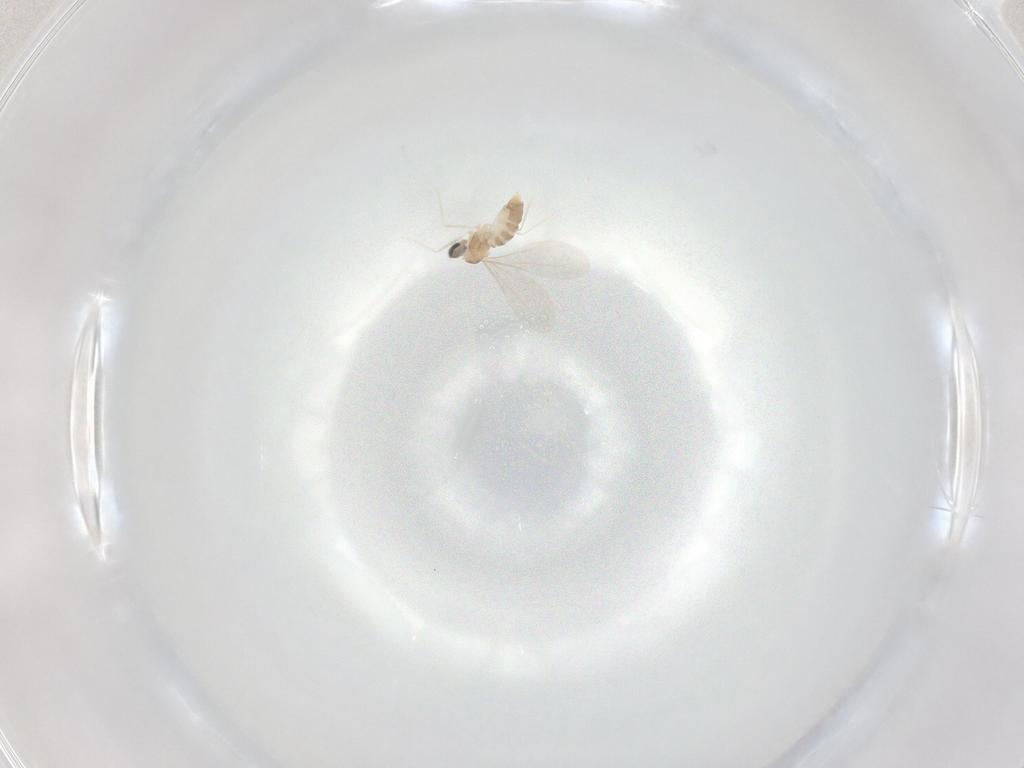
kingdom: Animalia
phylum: Arthropoda
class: Insecta
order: Diptera
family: Cecidomyiidae
